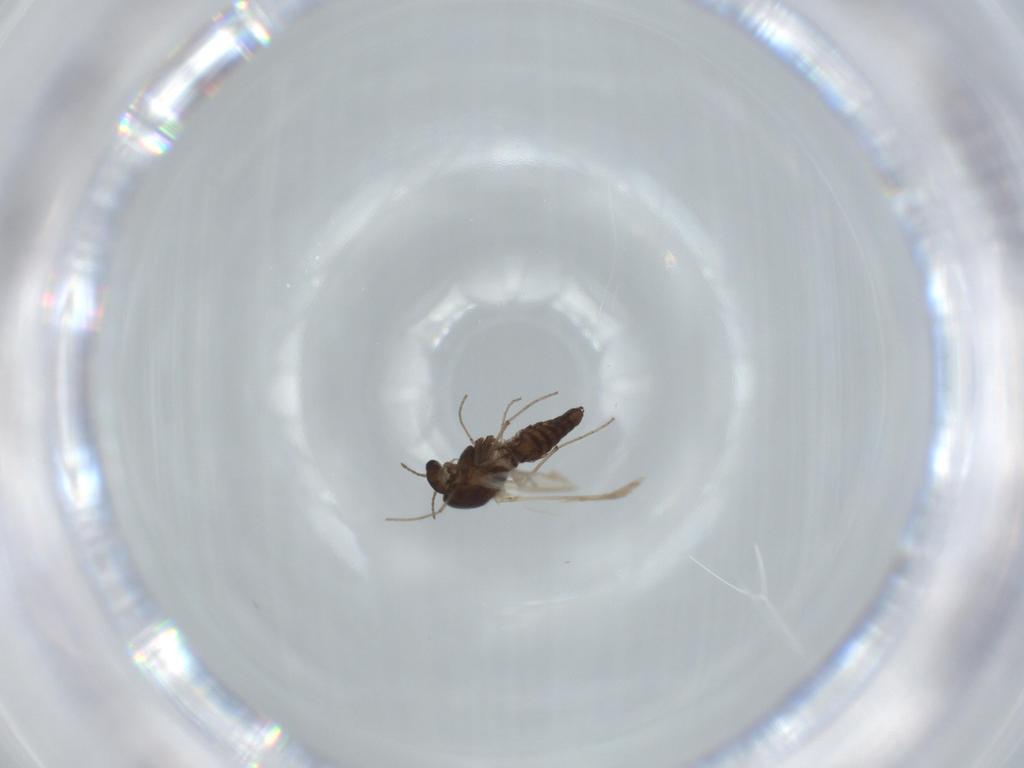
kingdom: Animalia
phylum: Arthropoda
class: Insecta
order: Diptera
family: Chironomidae
